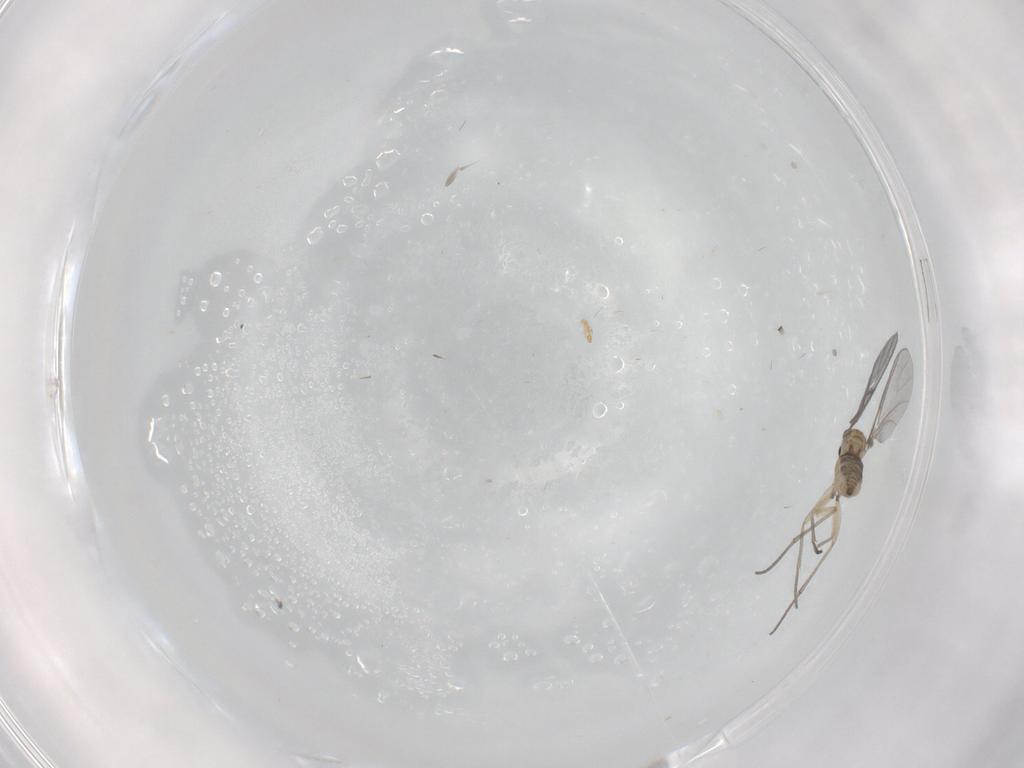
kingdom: Animalia
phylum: Arthropoda
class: Insecta
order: Diptera
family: Sciaridae
